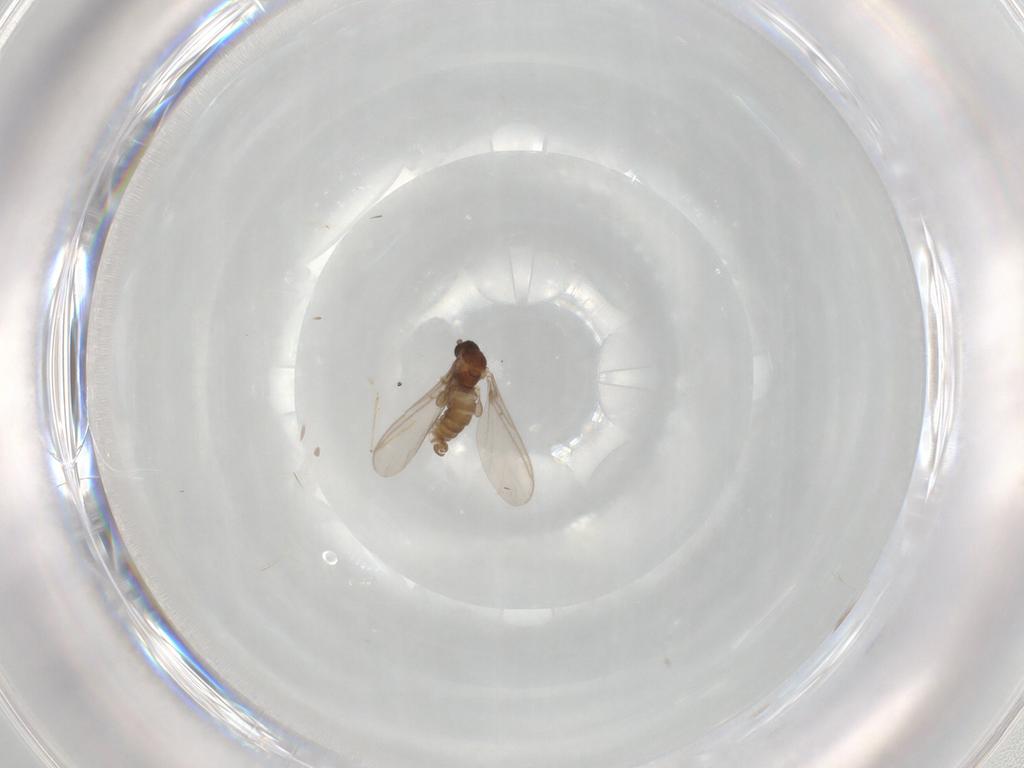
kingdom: Animalia
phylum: Arthropoda
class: Insecta
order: Diptera
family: Sciaridae
